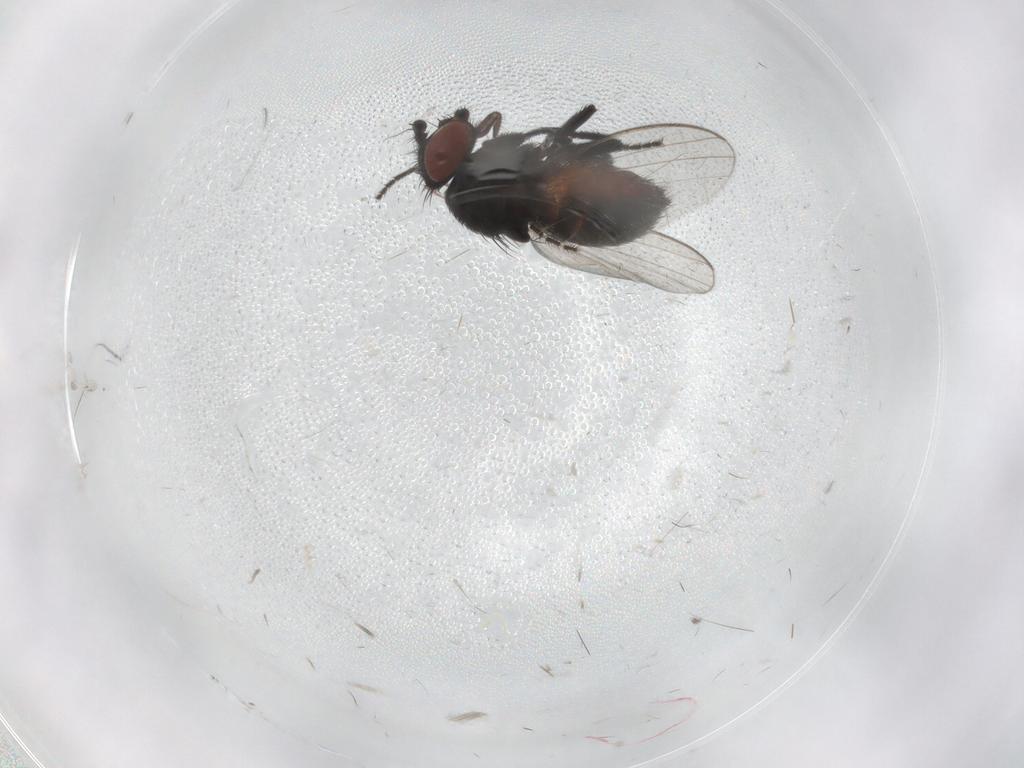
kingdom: Animalia
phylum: Arthropoda
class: Insecta
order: Diptera
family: Milichiidae
